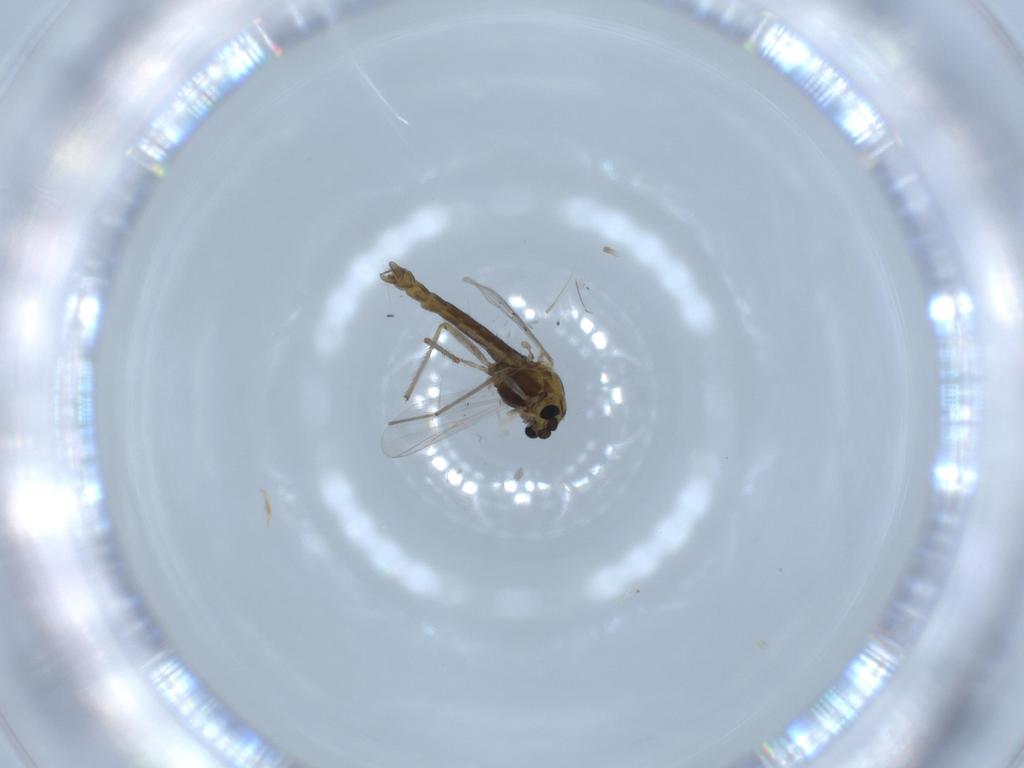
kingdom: Animalia
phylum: Arthropoda
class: Insecta
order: Diptera
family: Chironomidae
